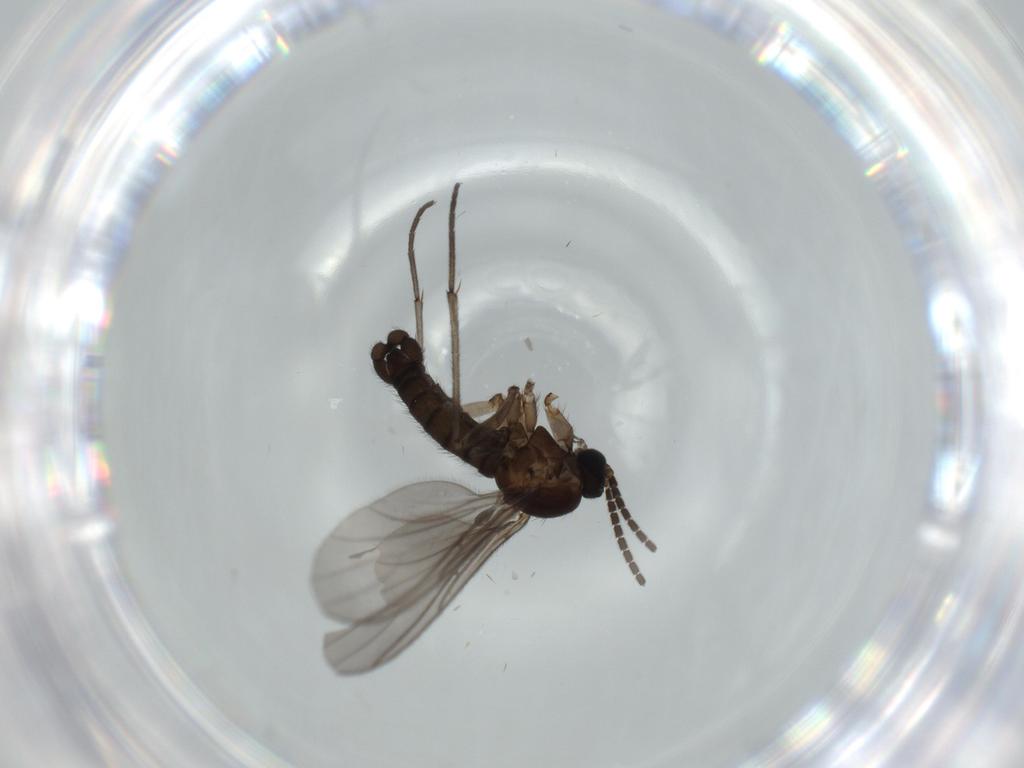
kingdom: Animalia
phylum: Arthropoda
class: Insecta
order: Diptera
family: Sciaridae
